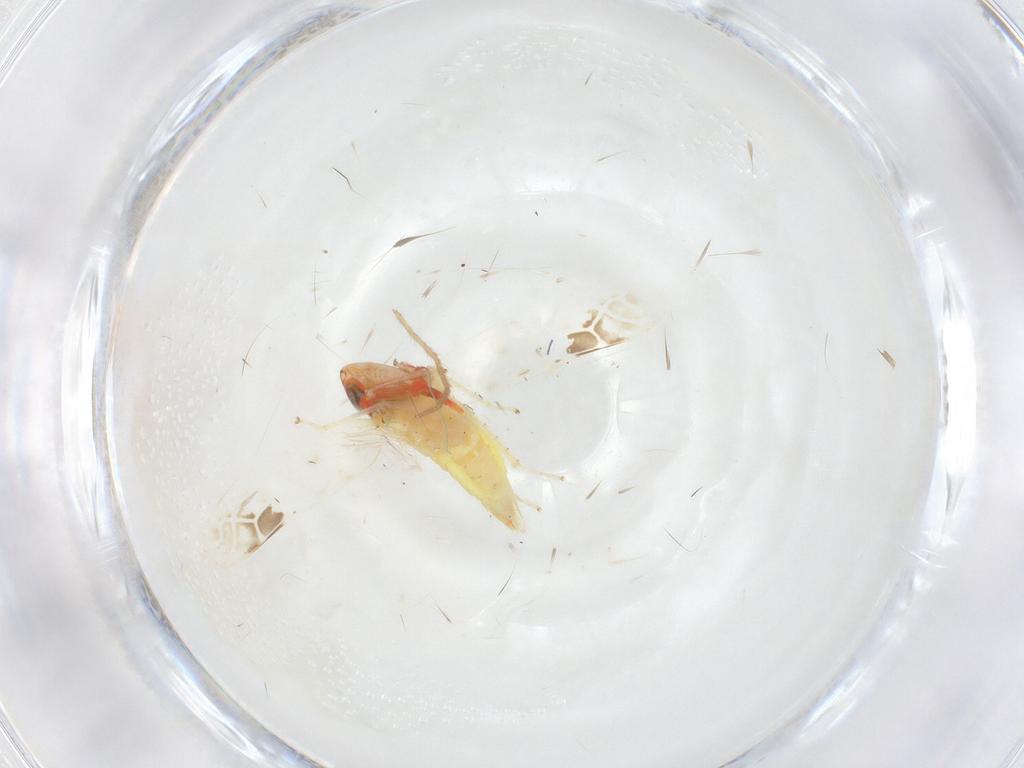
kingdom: Animalia
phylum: Arthropoda
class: Insecta
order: Hemiptera
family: Cicadellidae
